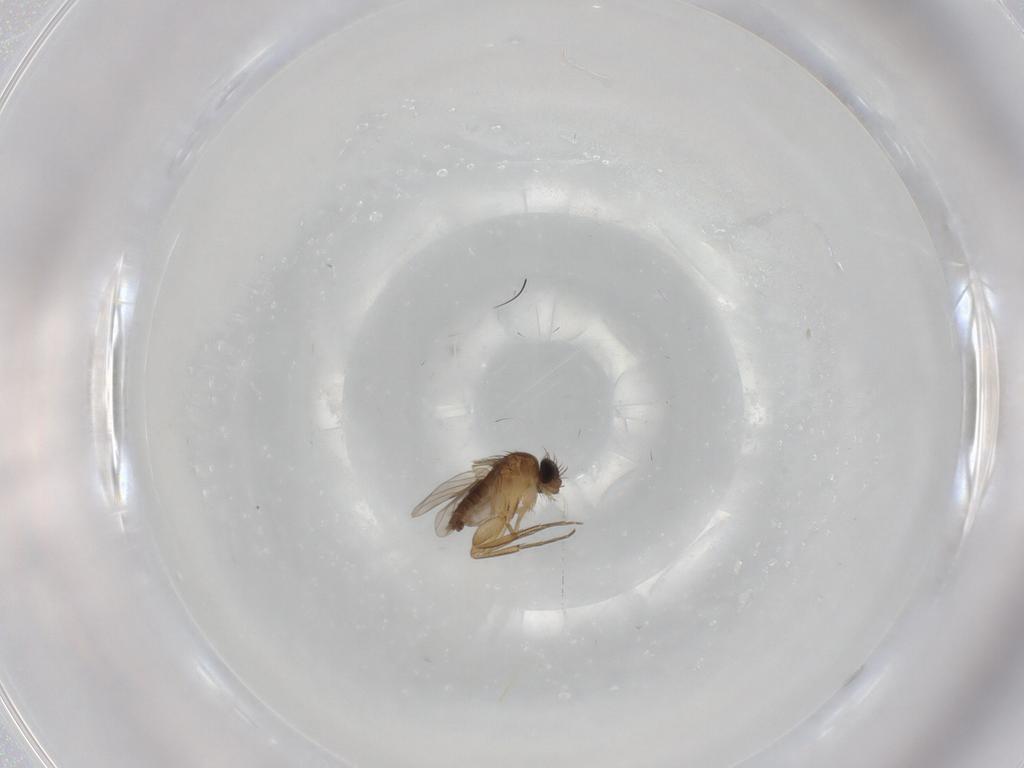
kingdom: Animalia
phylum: Arthropoda
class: Insecta
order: Diptera
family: Phoridae
